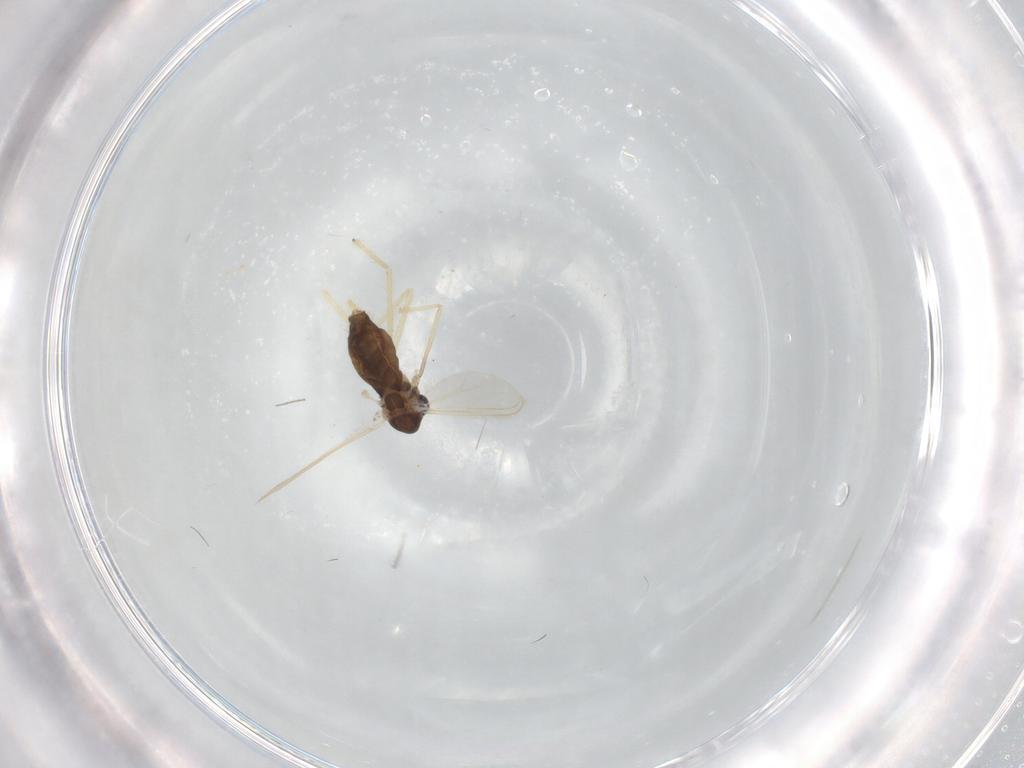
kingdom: Animalia
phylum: Arthropoda
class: Insecta
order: Diptera
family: Chironomidae
